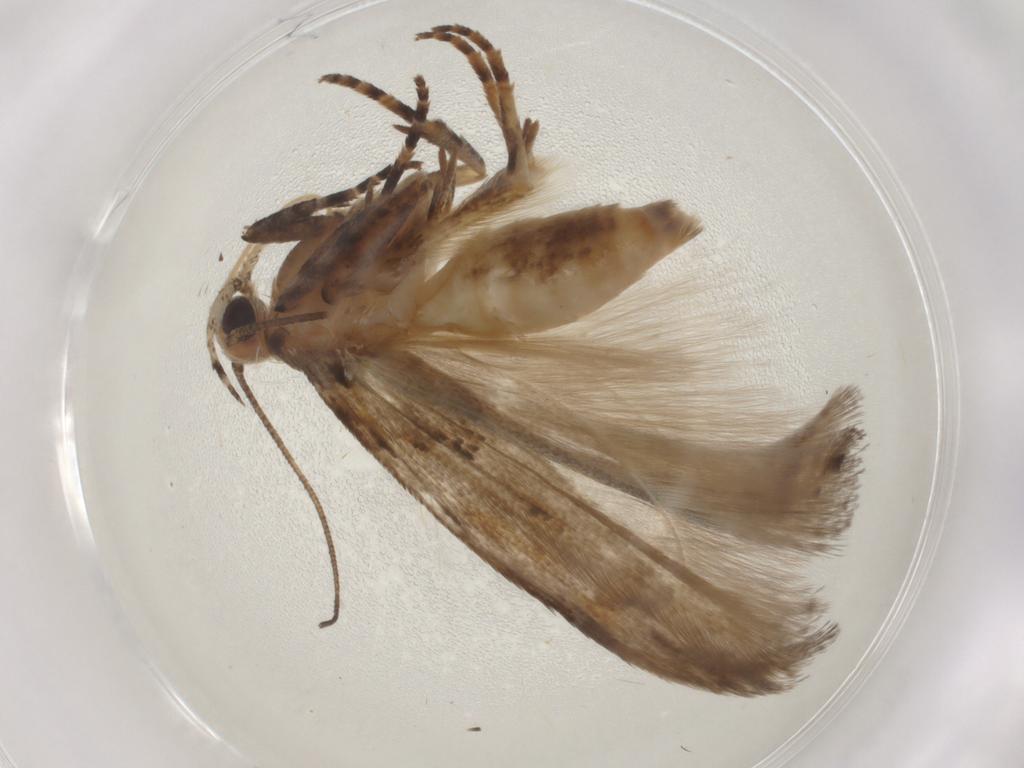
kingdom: Animalia
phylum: Arthropoda
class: Insecta
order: Lepidoptera
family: Gelechiidae
